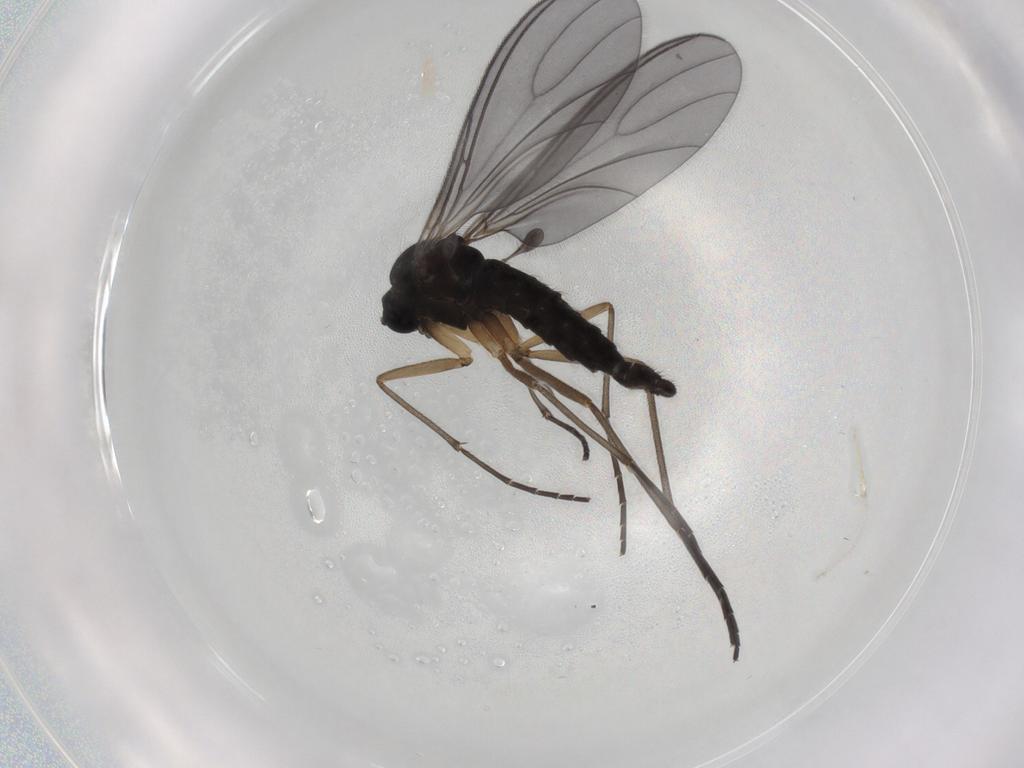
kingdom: Animalia
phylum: Arthropoda
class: Insecta
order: Diptera
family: Sciaridae
